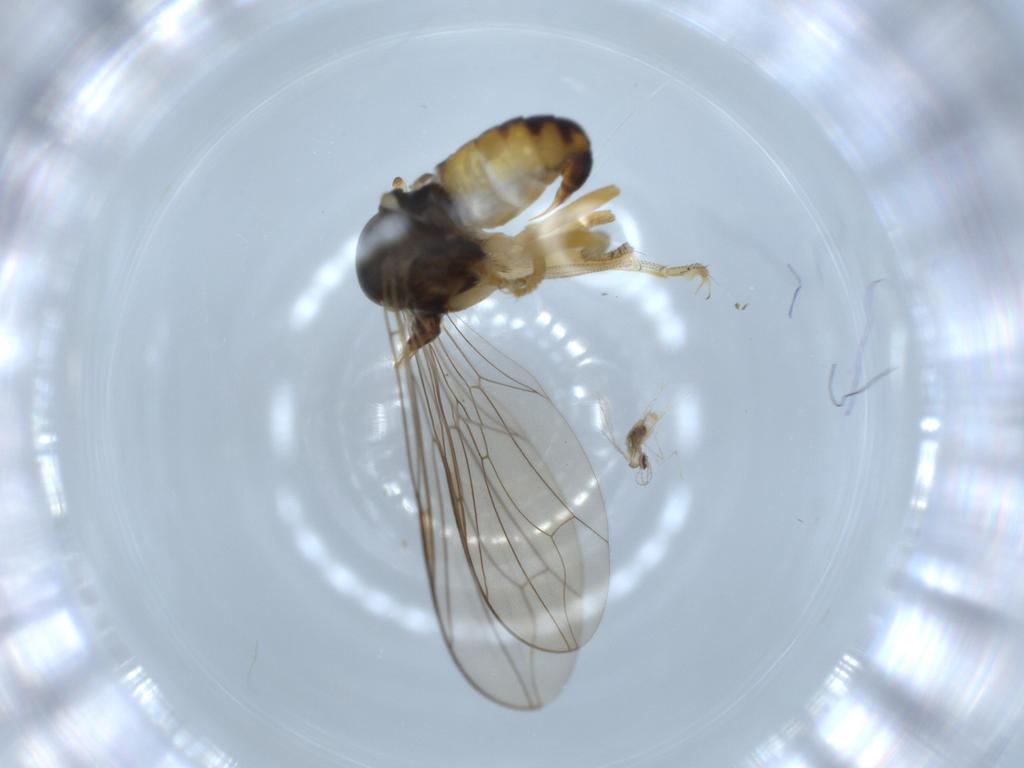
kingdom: Animalia
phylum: Arthropoda
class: Insecta
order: Diptera
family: Pipunculidae
